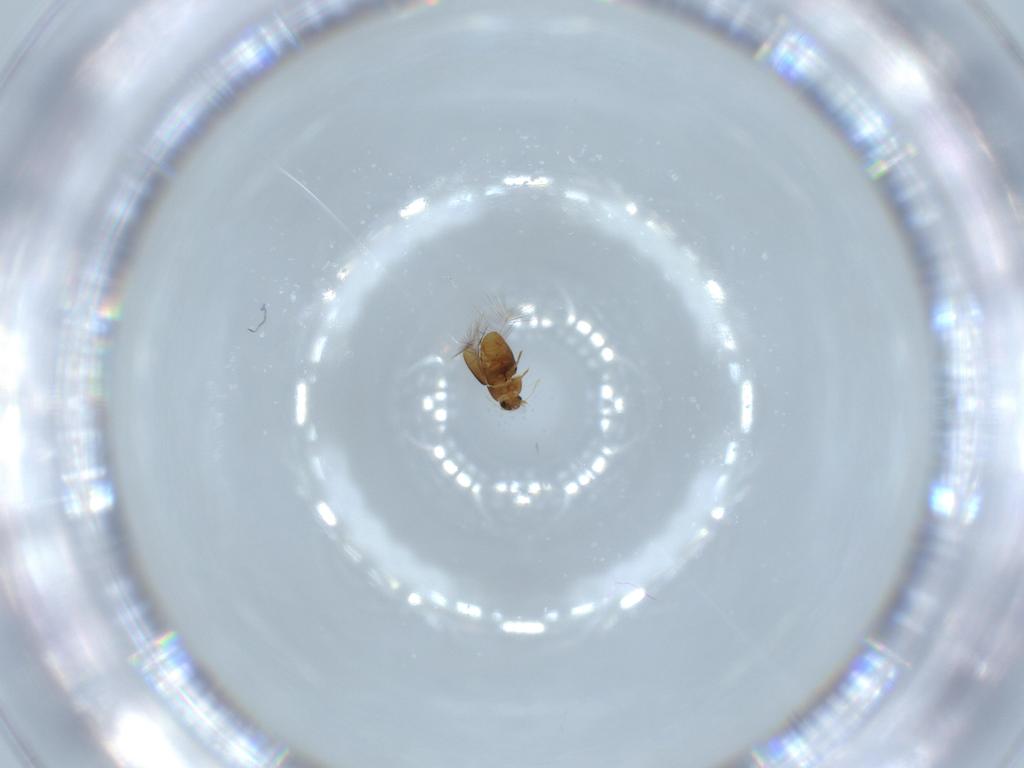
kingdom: Animalia
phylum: Arthropoda
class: Insecta
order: Coleoptera
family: Ptiliidae
